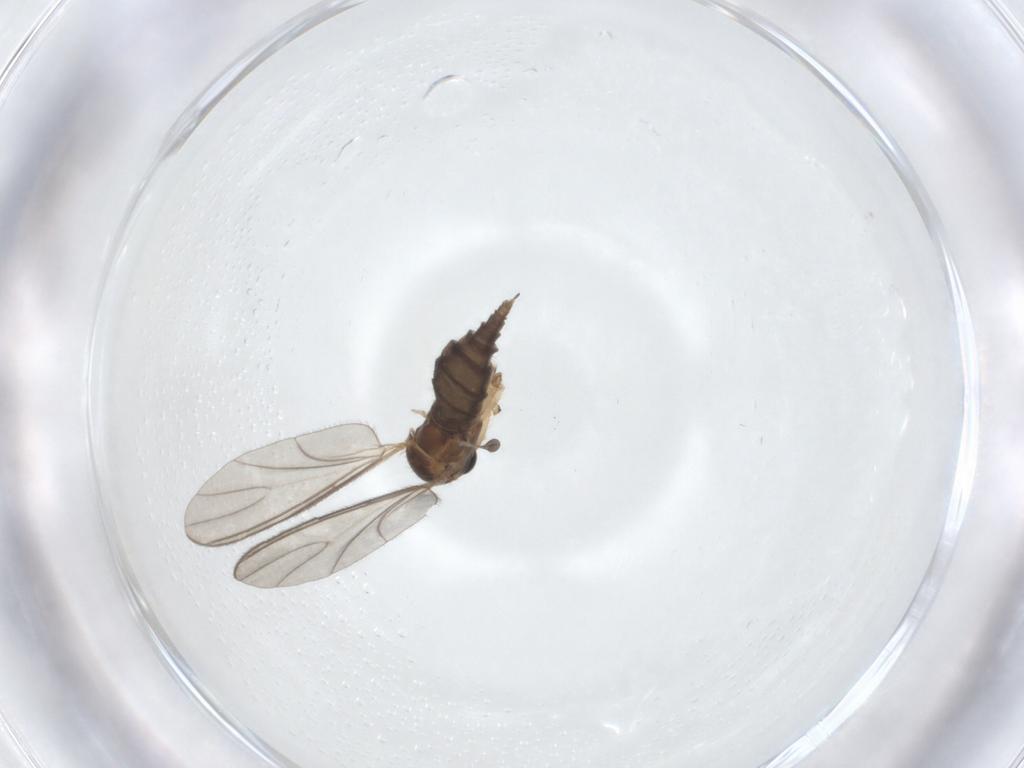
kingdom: Animalia
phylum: Arthropoda
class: Insecta
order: Diptera
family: Sciaridae
